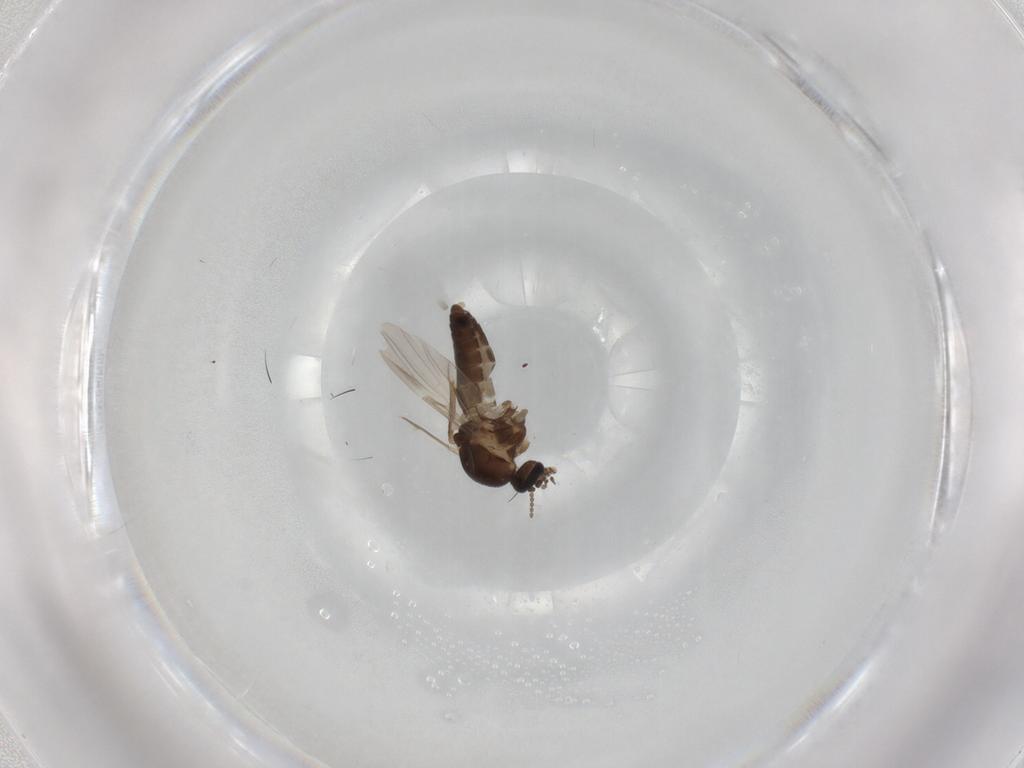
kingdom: Animalia
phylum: Arthropoda
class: Insecta
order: Diptera
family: Ceratopogonidae
